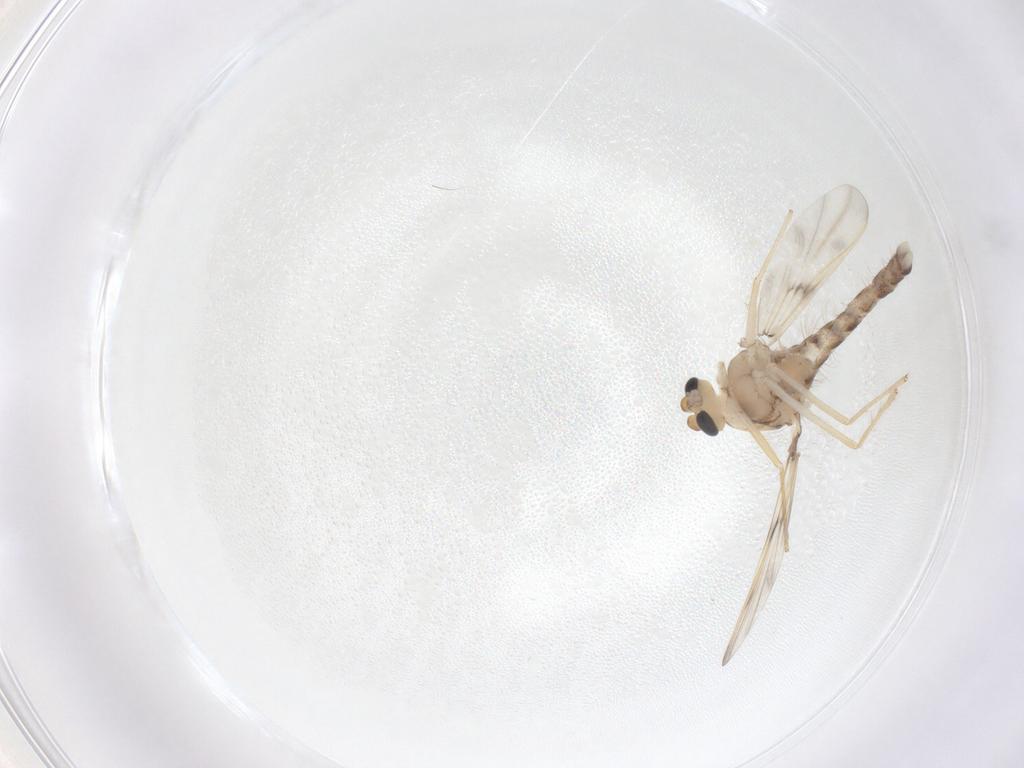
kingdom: Animalia
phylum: Arthropoda
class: Insecta
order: Diptera
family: Chironomidae
